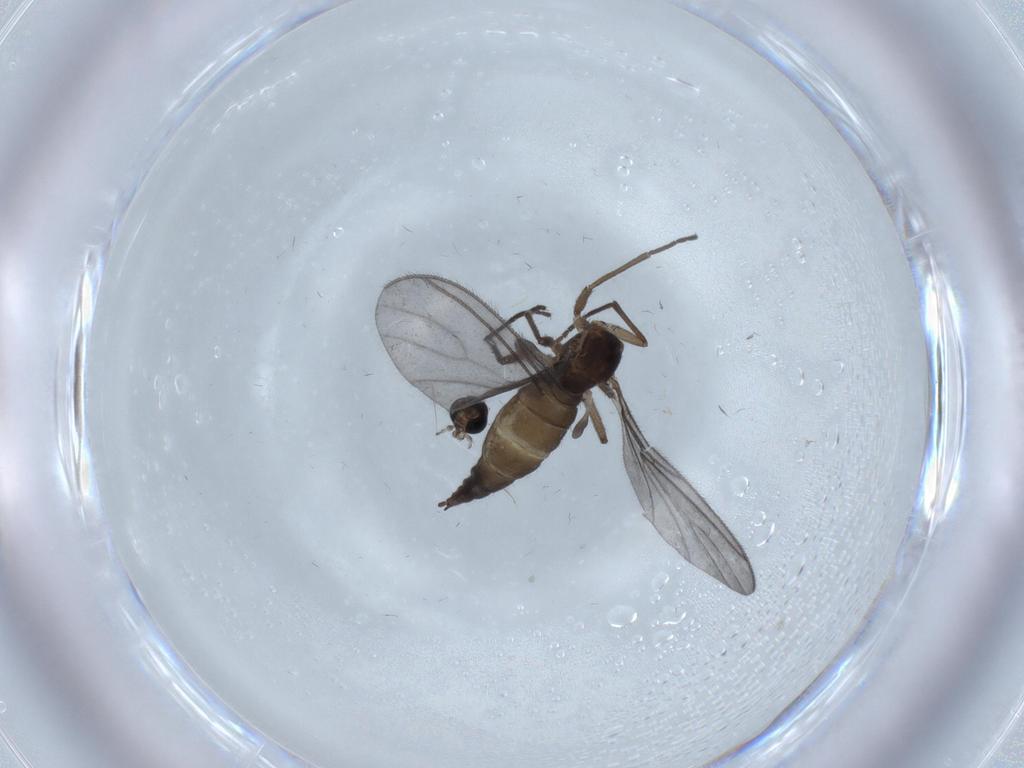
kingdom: Animalia
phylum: Arthropoda
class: Insecta
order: Diptera
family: Sciaridae
